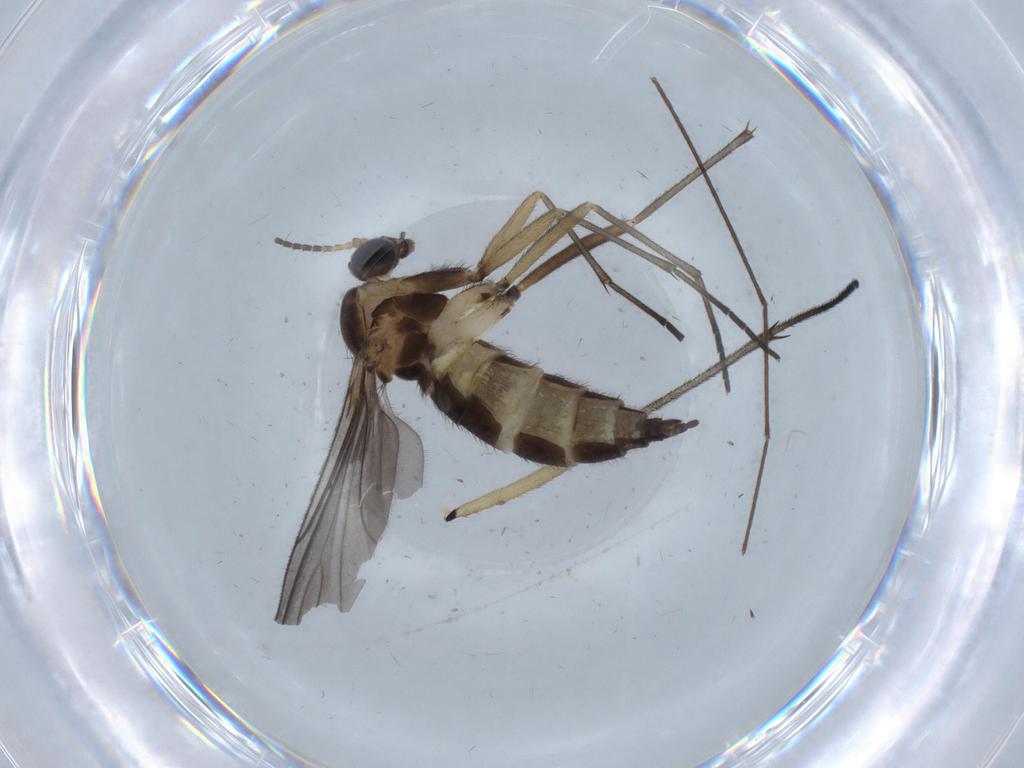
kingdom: Animalia
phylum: Arthropoda
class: Insecta
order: Diptera
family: Sciaridae
